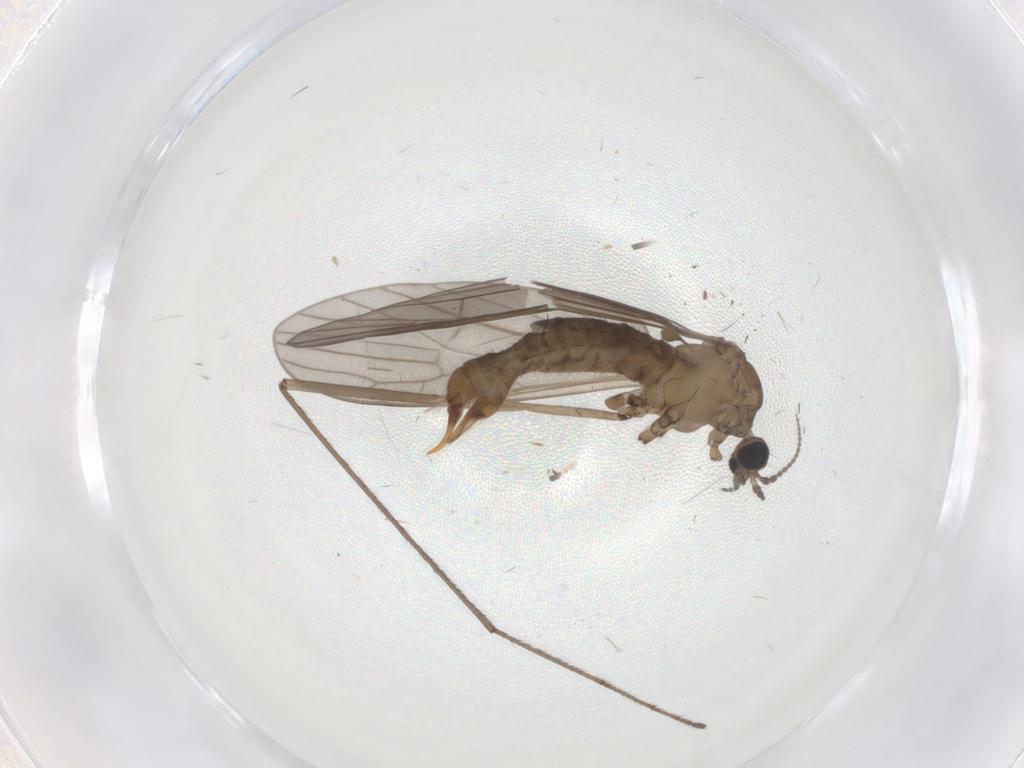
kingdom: Animalia
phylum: Arthropoda
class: Insecta
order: Diptera
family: Limoniidae
